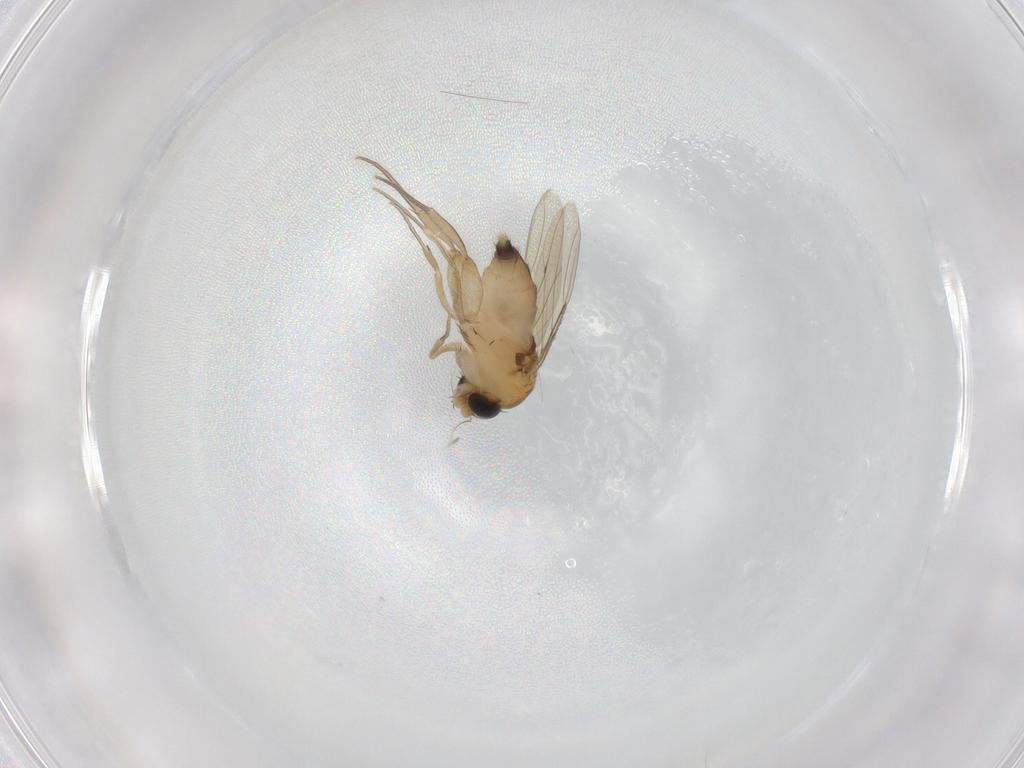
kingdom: Animalia
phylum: Arthropoda
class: Insecta
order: Diptera
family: Phoridae
